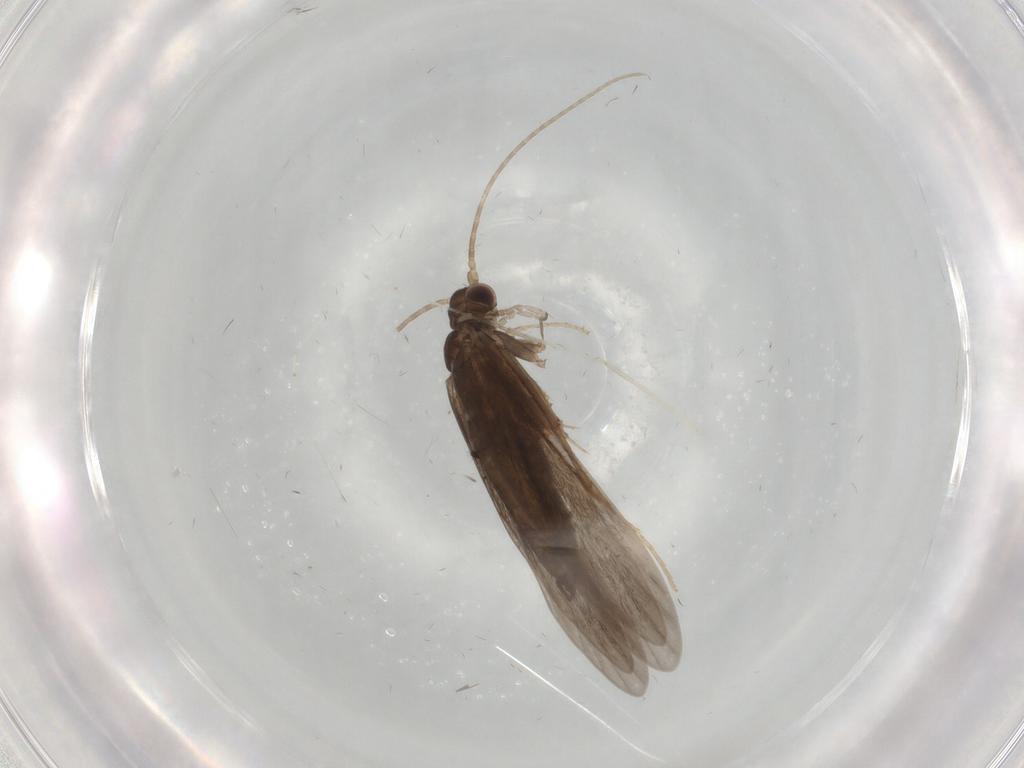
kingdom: Animalia
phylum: Arthropoda
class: Insecta
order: Trichoptera
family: Xiphocentronidae
